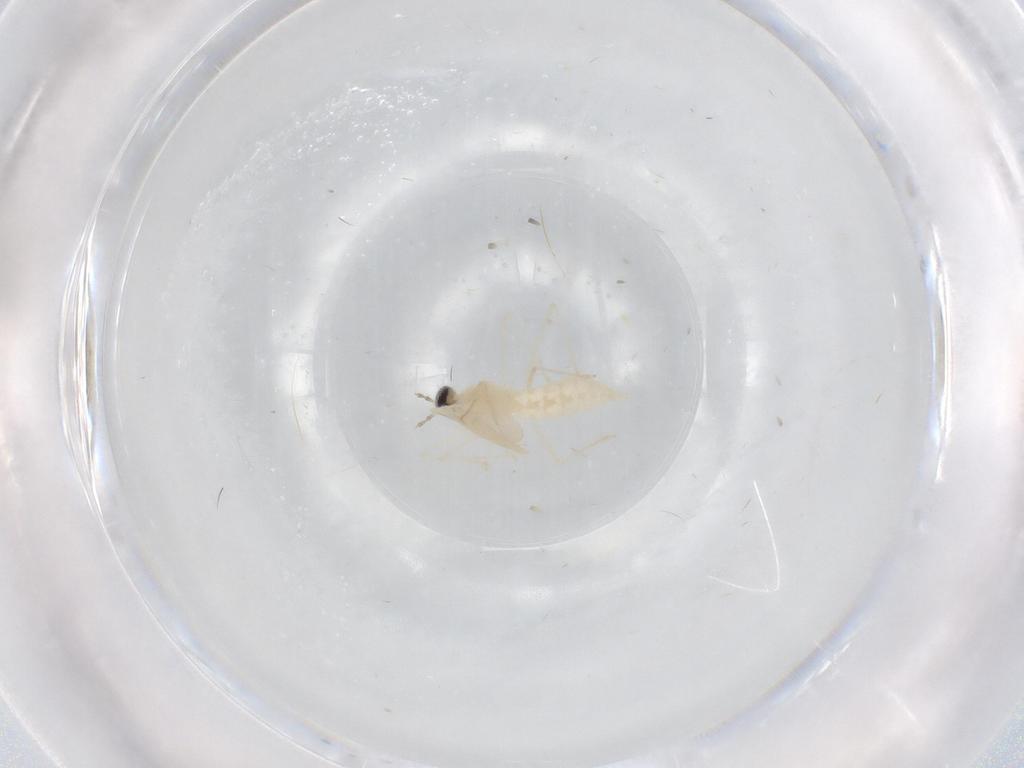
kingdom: Animalia
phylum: Arthropoda
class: Insecta
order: Diptera
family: Cecidomyiidae
